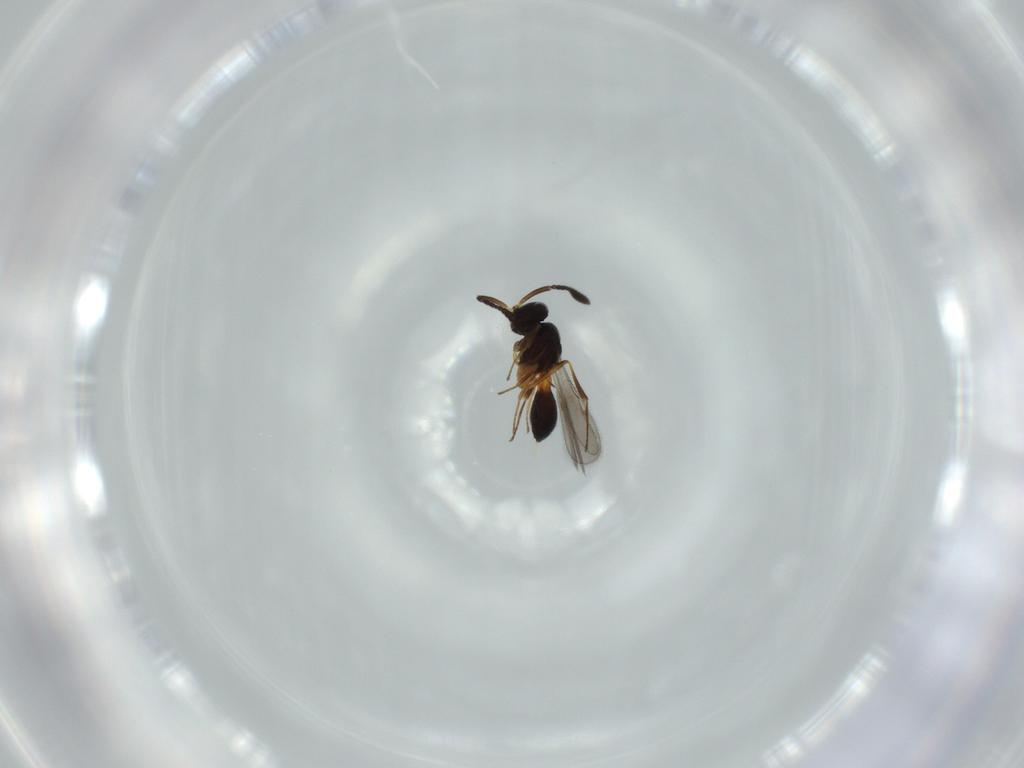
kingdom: Animalia
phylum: Arthropoda
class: Insecta
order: Hymenoptera
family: Scelionidae
